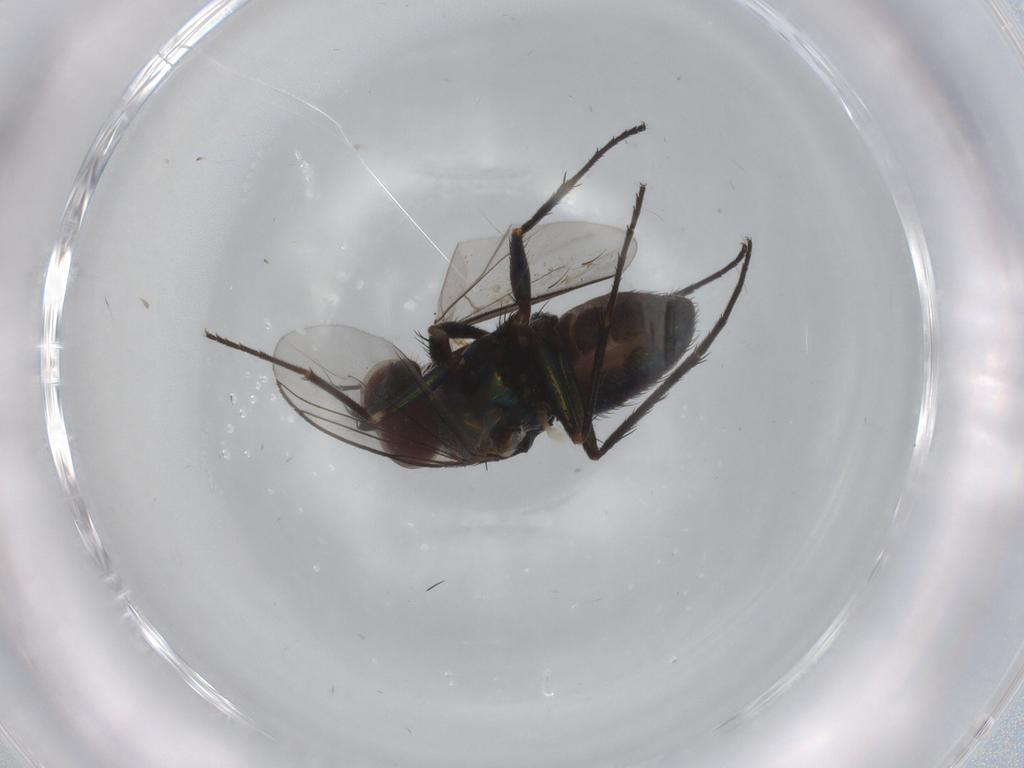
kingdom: Animalia
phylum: Arthropoda
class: Insecta
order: Diptera
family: Dolichopodidae
